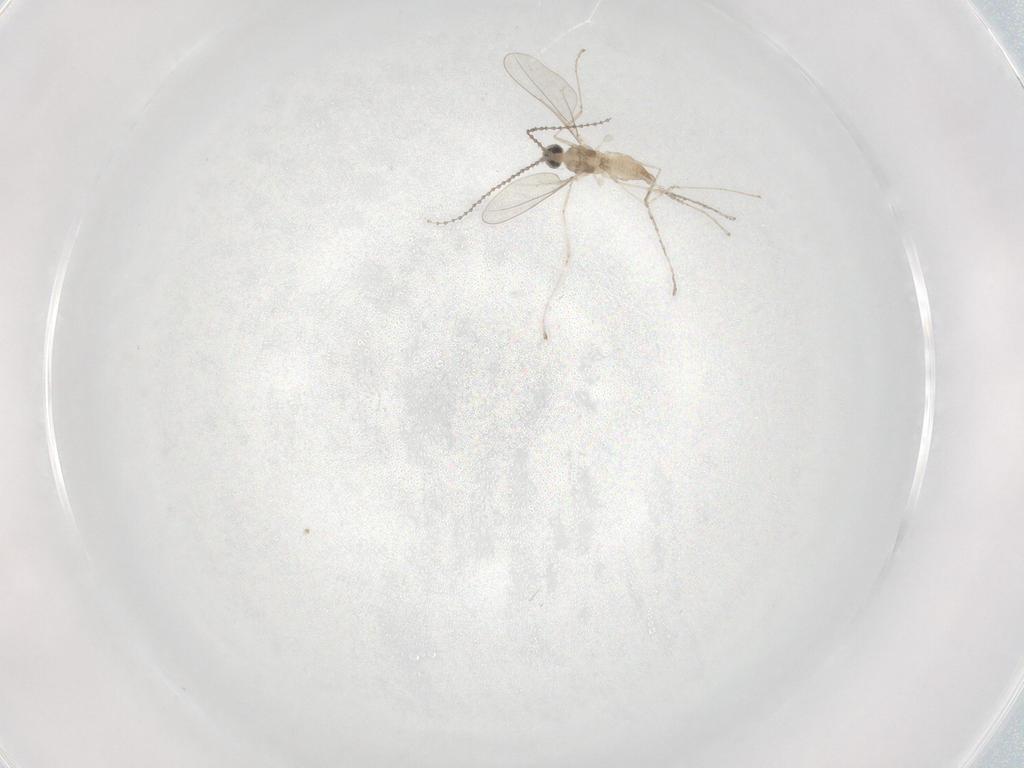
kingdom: Animalia
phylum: Arthropoda
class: Insecta
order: Diptera
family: Cecidomyiidae
